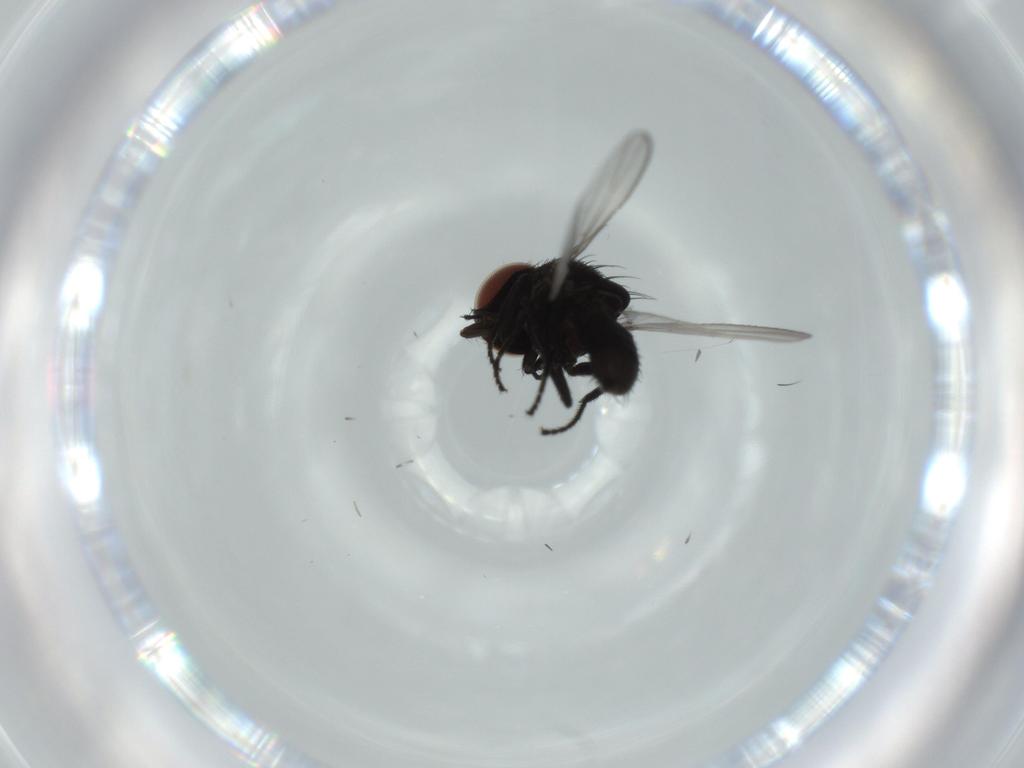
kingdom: Animalia
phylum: Arthropoda
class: Insecta
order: Diptera
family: Milichiidae
